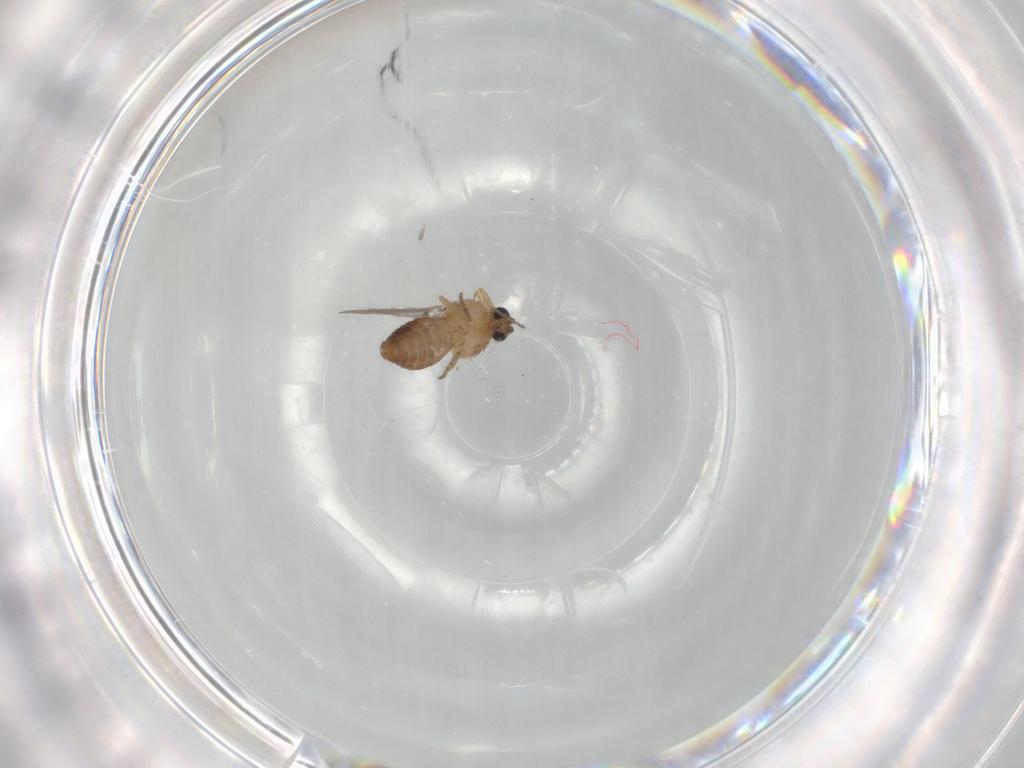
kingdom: Animalia
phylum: Arthropoda
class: Insecta
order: Diptera
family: Ceratopogonidae
